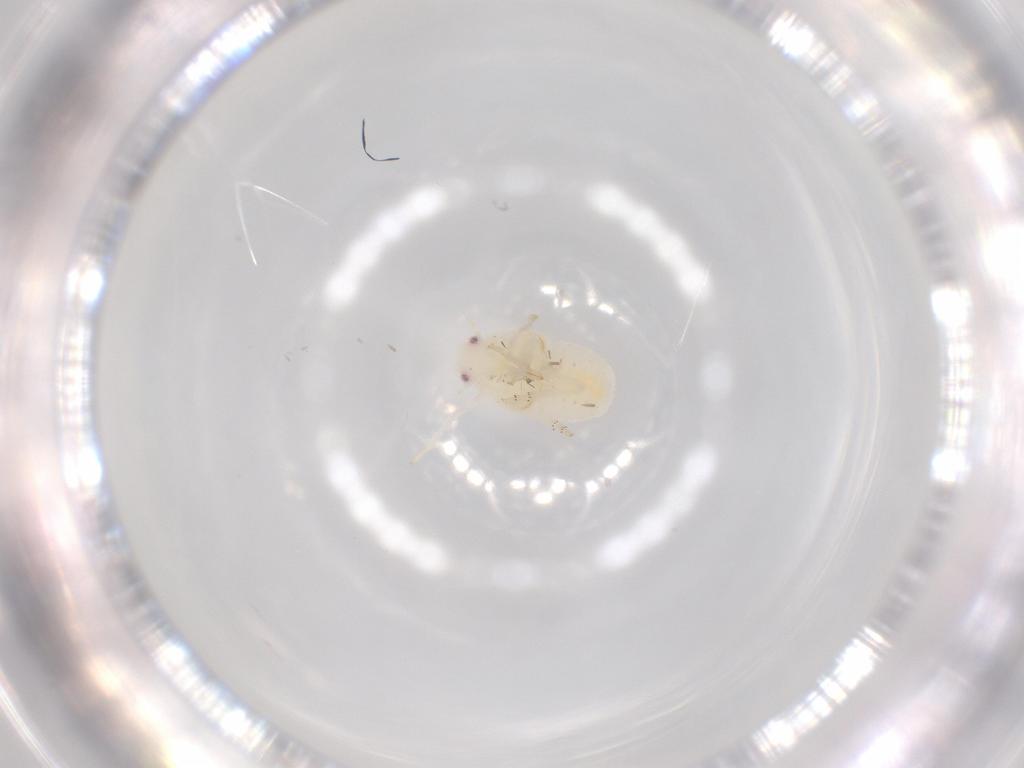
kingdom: Animalia
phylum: Arthropoda
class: Insecta
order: Hemiptera
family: Flatidae
